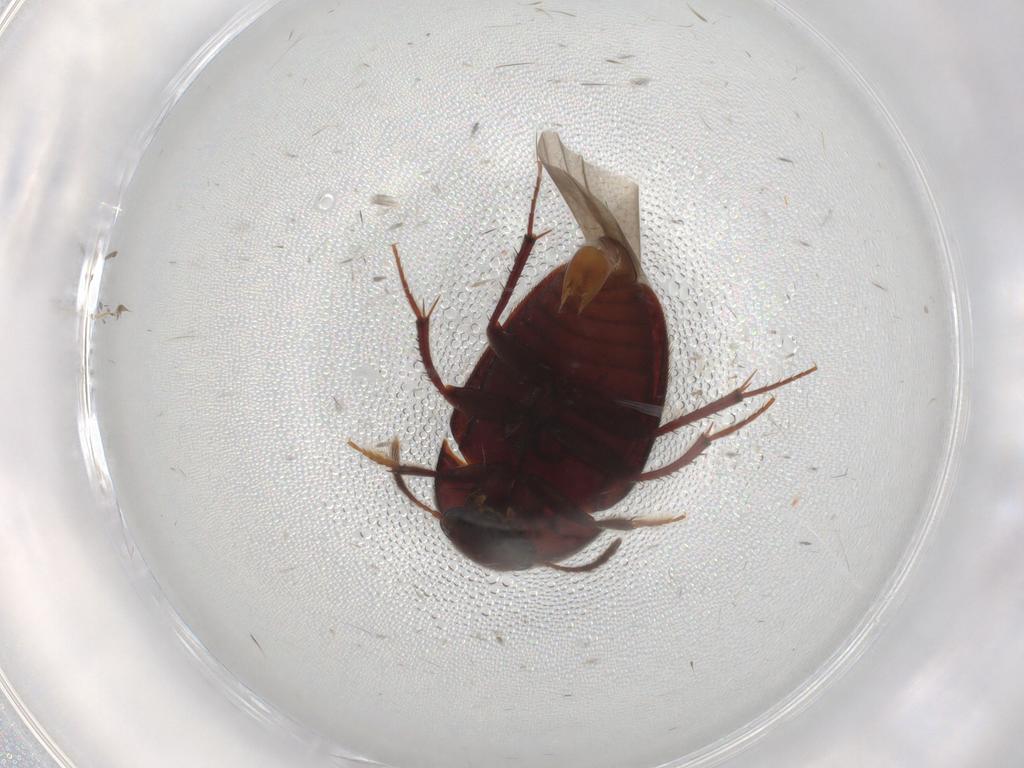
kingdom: Animalia
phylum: Arthropoda
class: Insecta
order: Coleoptera
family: Leiodidae
